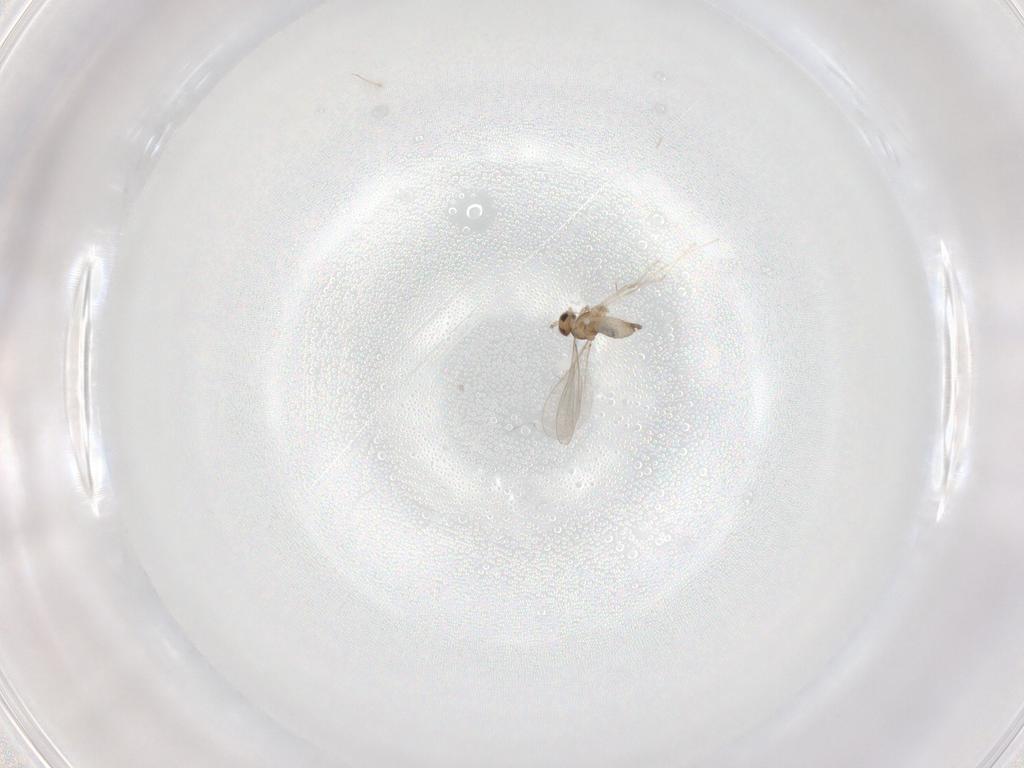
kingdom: Animalia
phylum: Arthropoda
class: Insecta
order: Diptera
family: Cecidomyiidae
